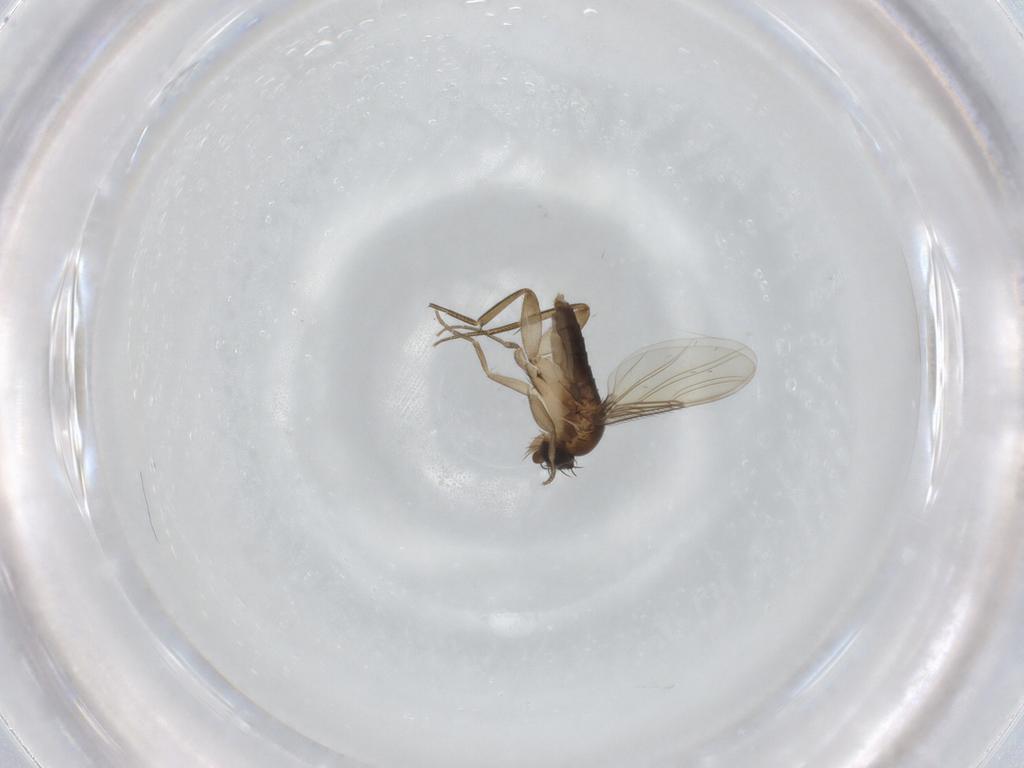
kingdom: Animalia
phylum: Arthropoda
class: Insecta
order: Diptera
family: Phoridae
